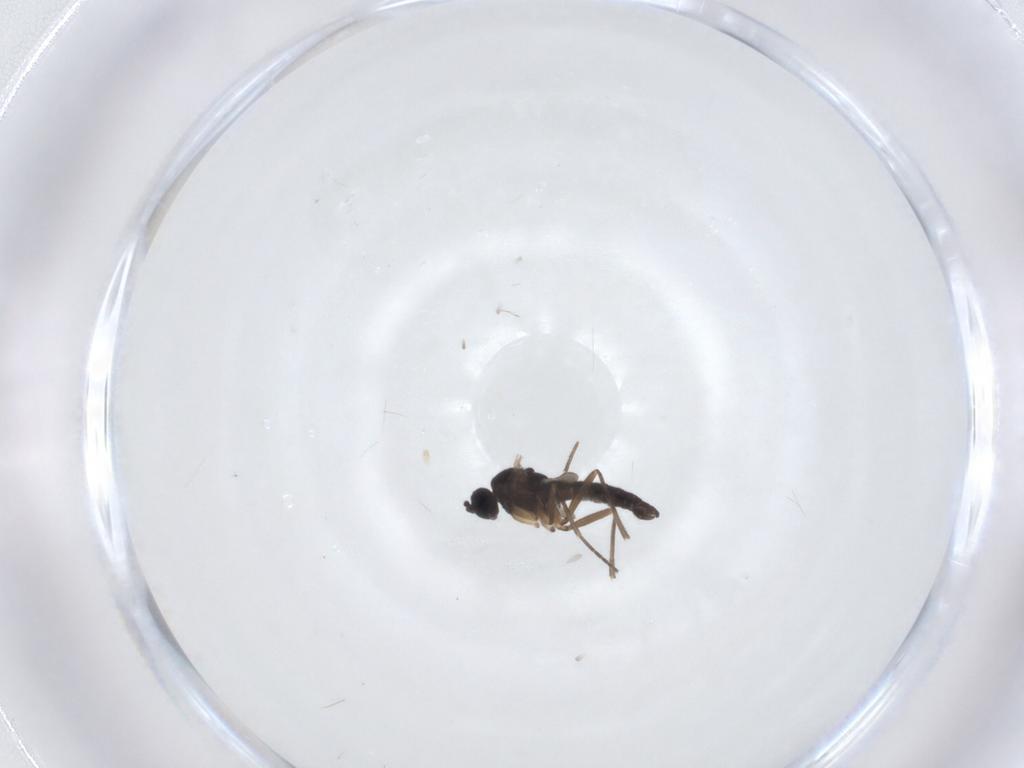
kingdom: Animalia
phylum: Arthropoda
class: Insecta
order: Diptera
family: Sciaridae
